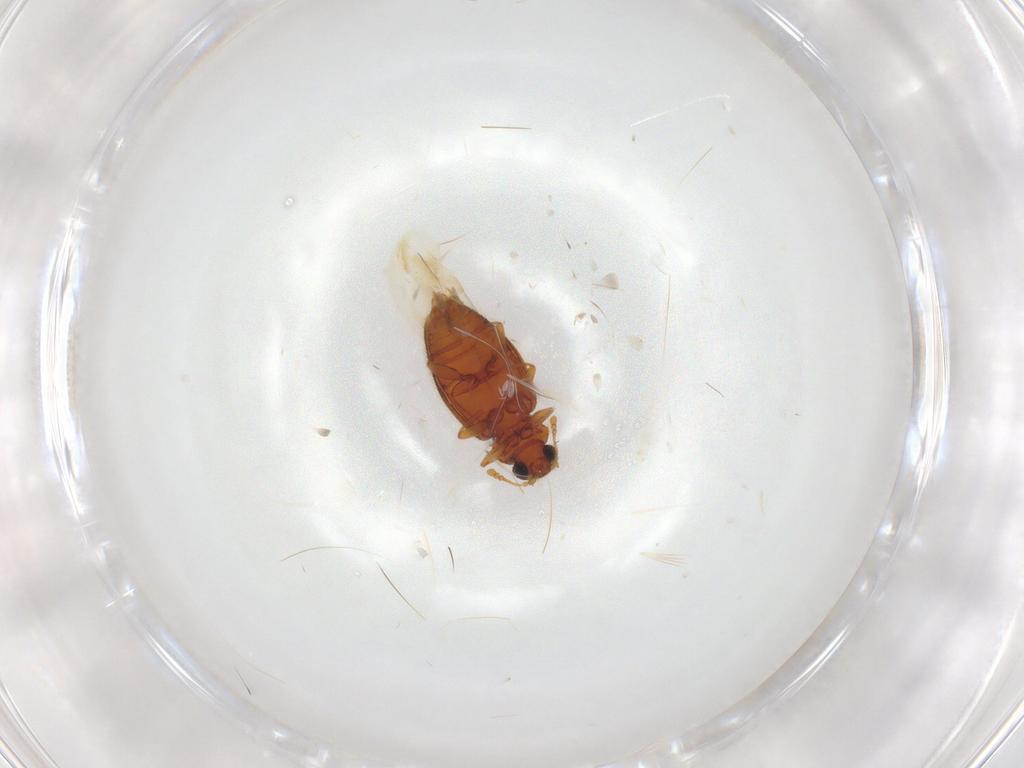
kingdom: Animalia
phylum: Arthropoda
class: Insecta
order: Coleoptera
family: Latridiidae
